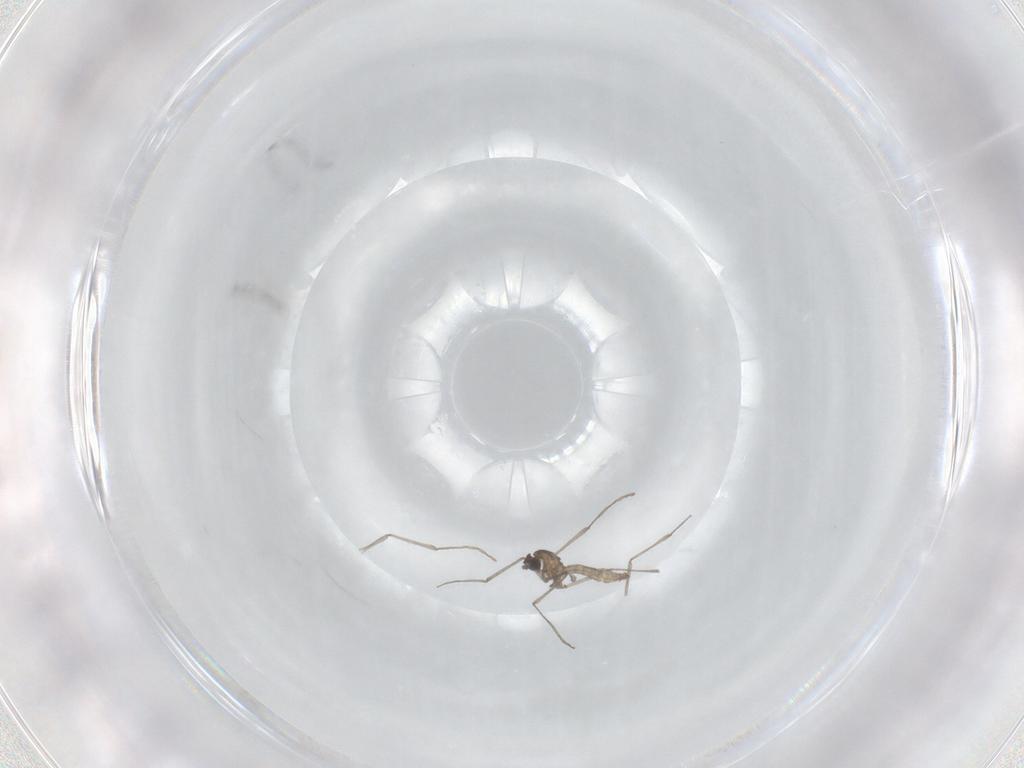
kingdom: Animalia
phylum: Arthropoda
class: Insecta
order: Diptera
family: Cecidomyiidae
